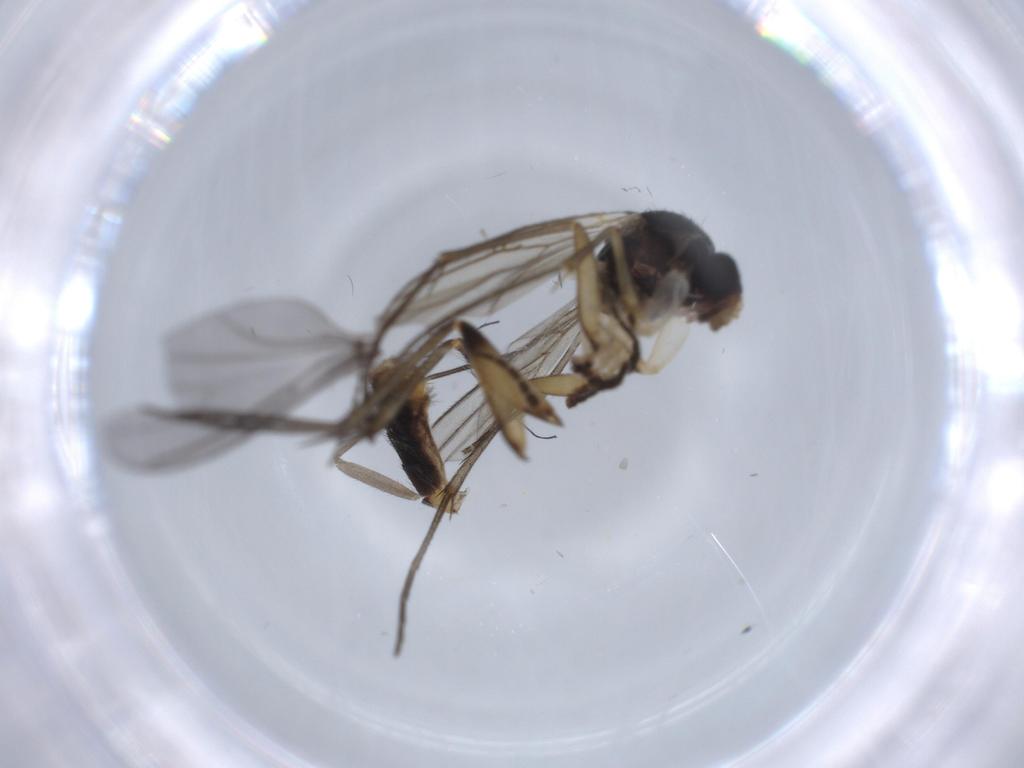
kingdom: Animalia
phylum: Arthropoda
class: Insecta
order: Diptera
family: Mycetophilidae
